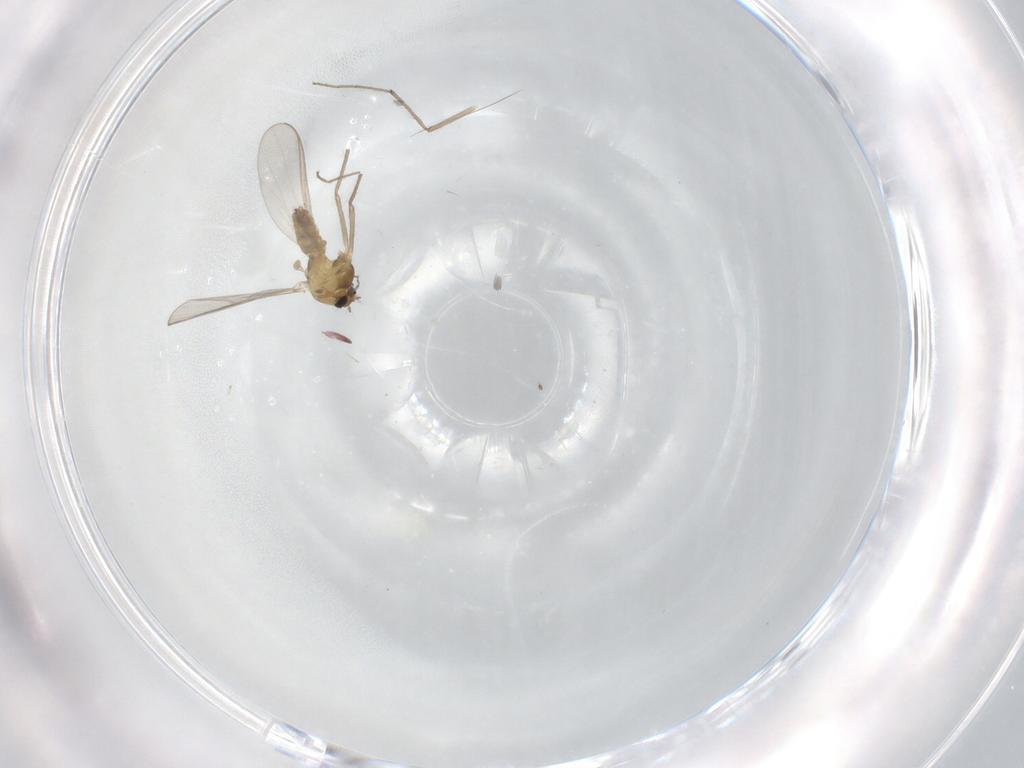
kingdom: Animalia
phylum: Arthropoda
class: Insecta
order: Diptera
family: Chironomidae
